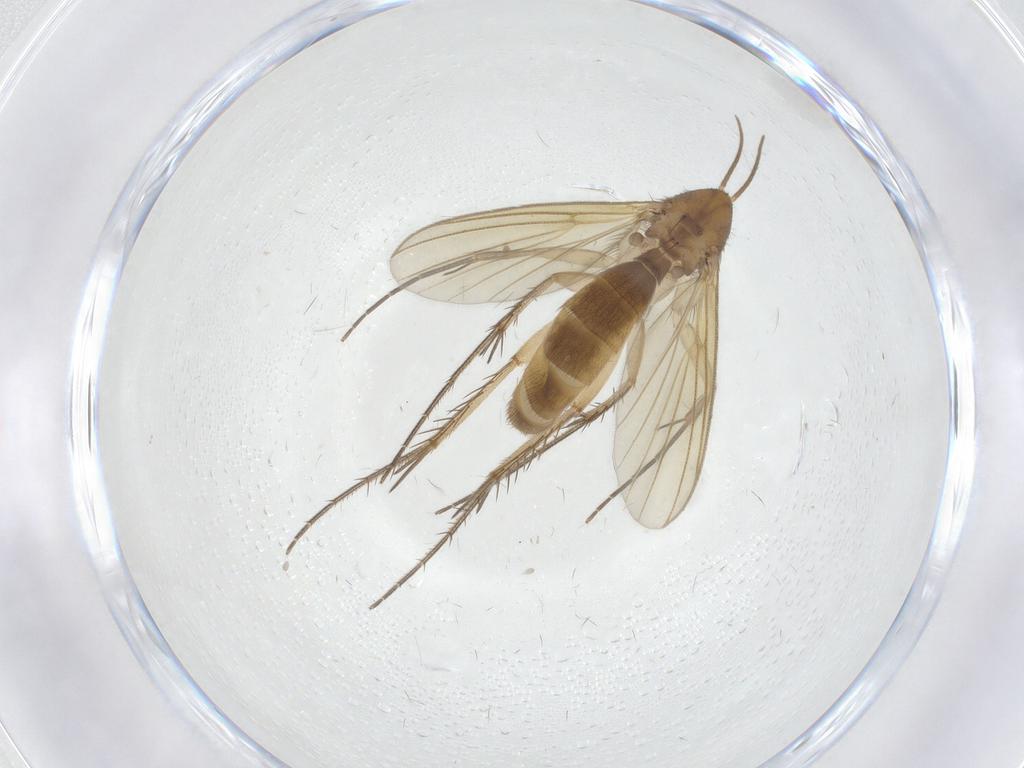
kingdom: Animalia
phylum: Arthropoda
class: Insecta
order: Diptera
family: Mycetophilidae
